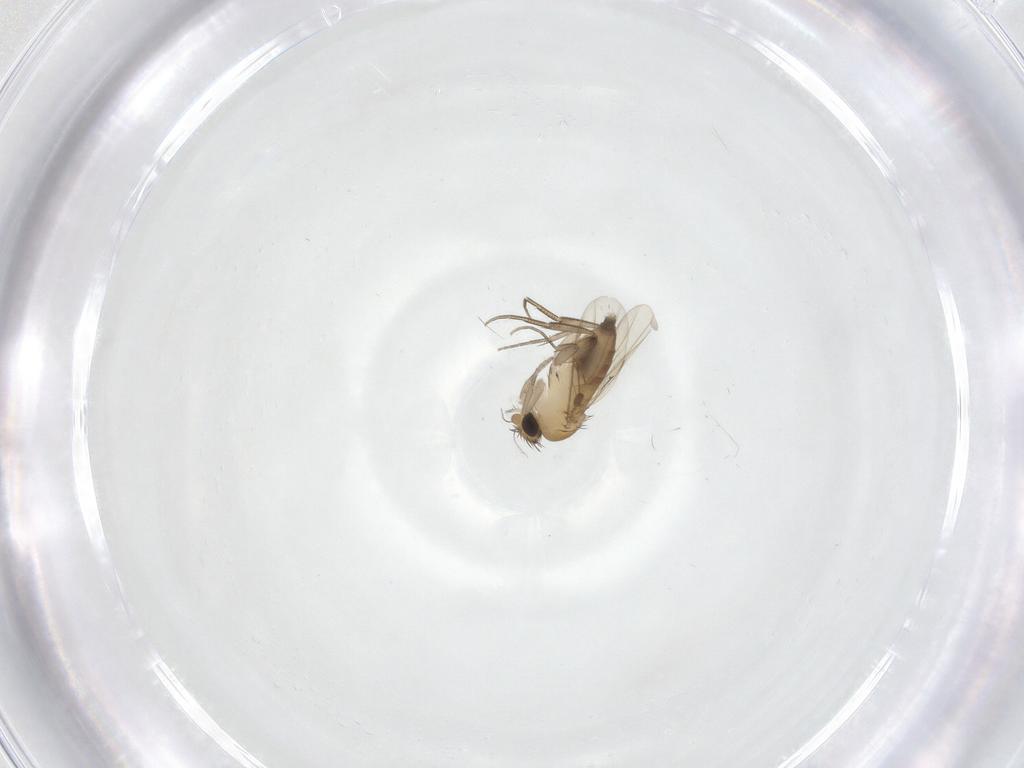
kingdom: Animalia
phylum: Arthropoda
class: Insecta
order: Diptera
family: Phoridae
